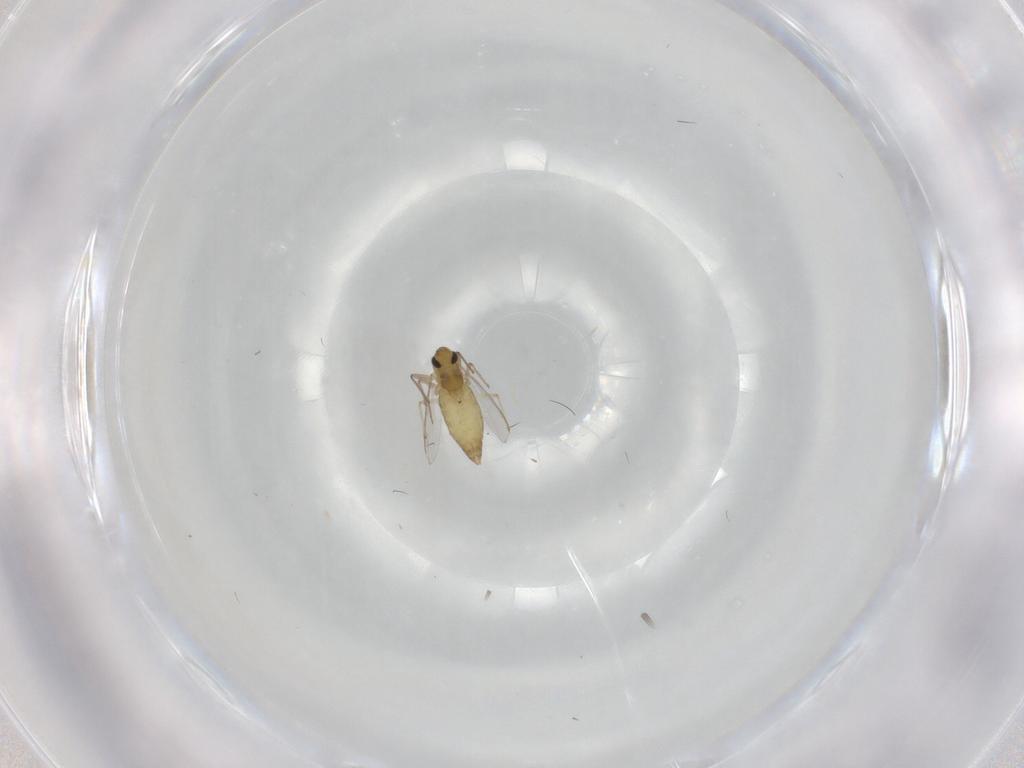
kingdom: Animalia
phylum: Arthropoda
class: Insecta
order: Diptera
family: Chironomidae
